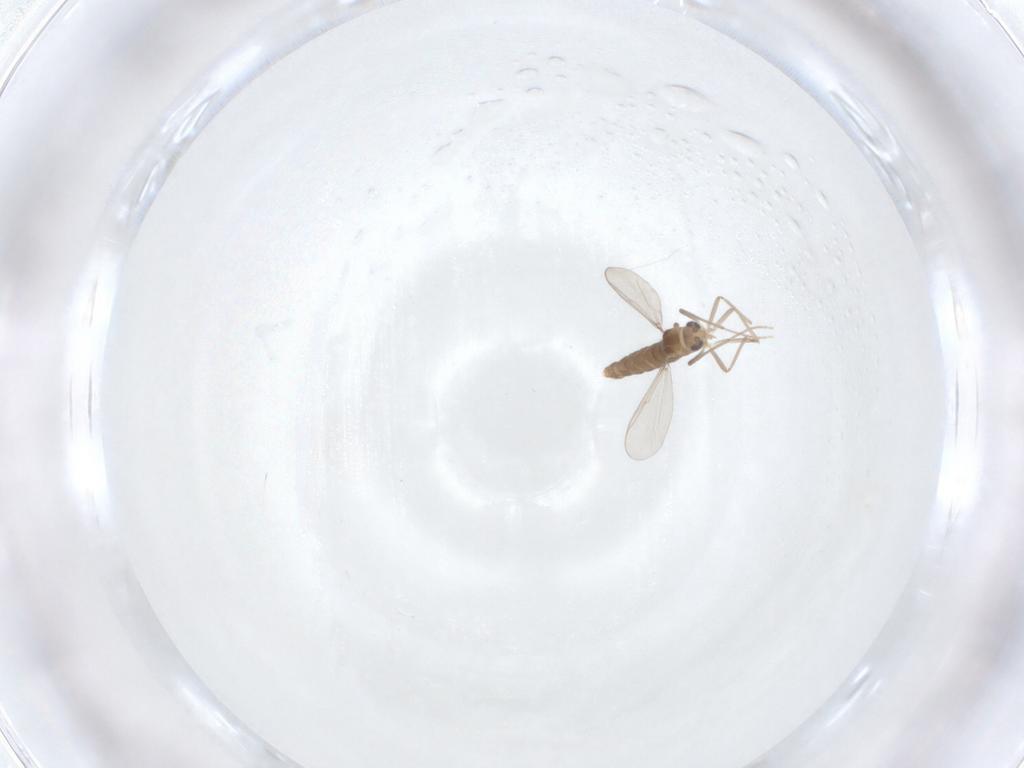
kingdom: Animalia
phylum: Arthropoda
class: Insecta
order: Diptera
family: Chironomidae
